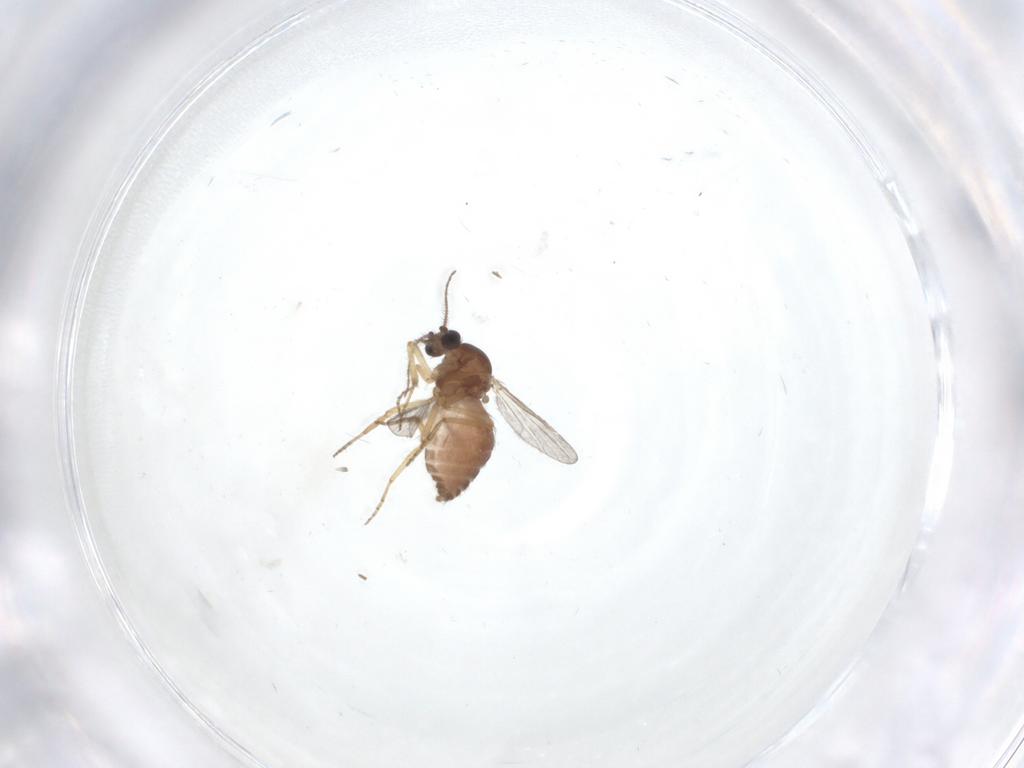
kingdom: Animalia
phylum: Arthropoda
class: Insecta
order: Diptera
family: Ceratopogonidae
